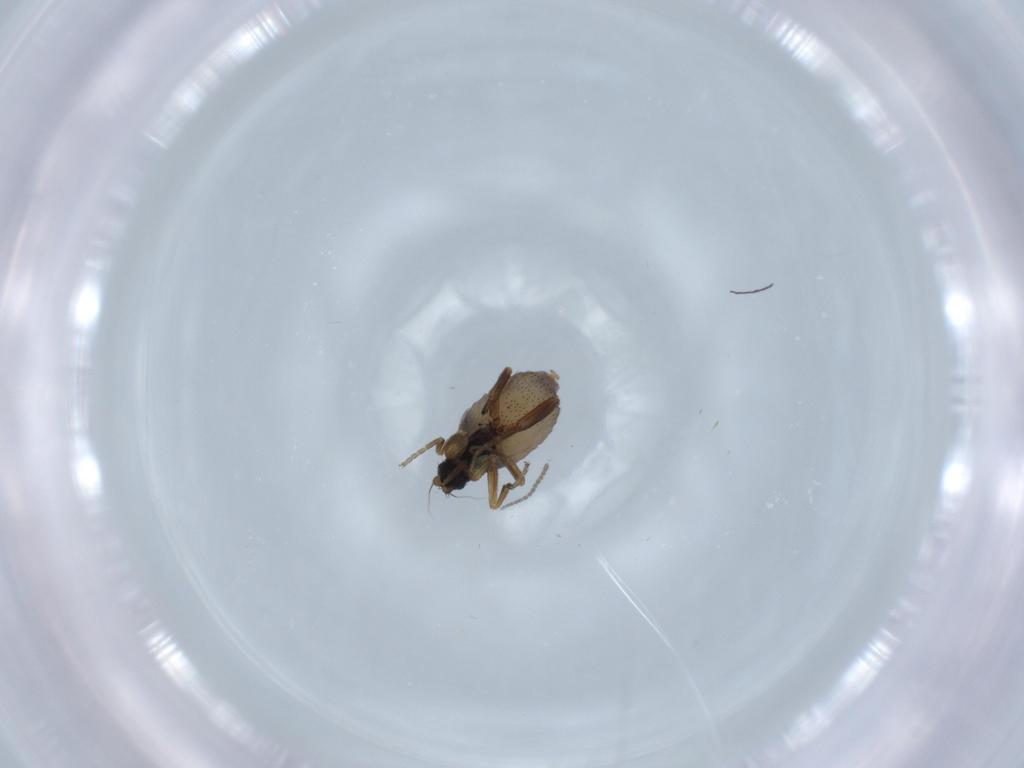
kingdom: Animalia
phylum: Arthropoda
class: Insecta
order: Diptera
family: Phoridae
